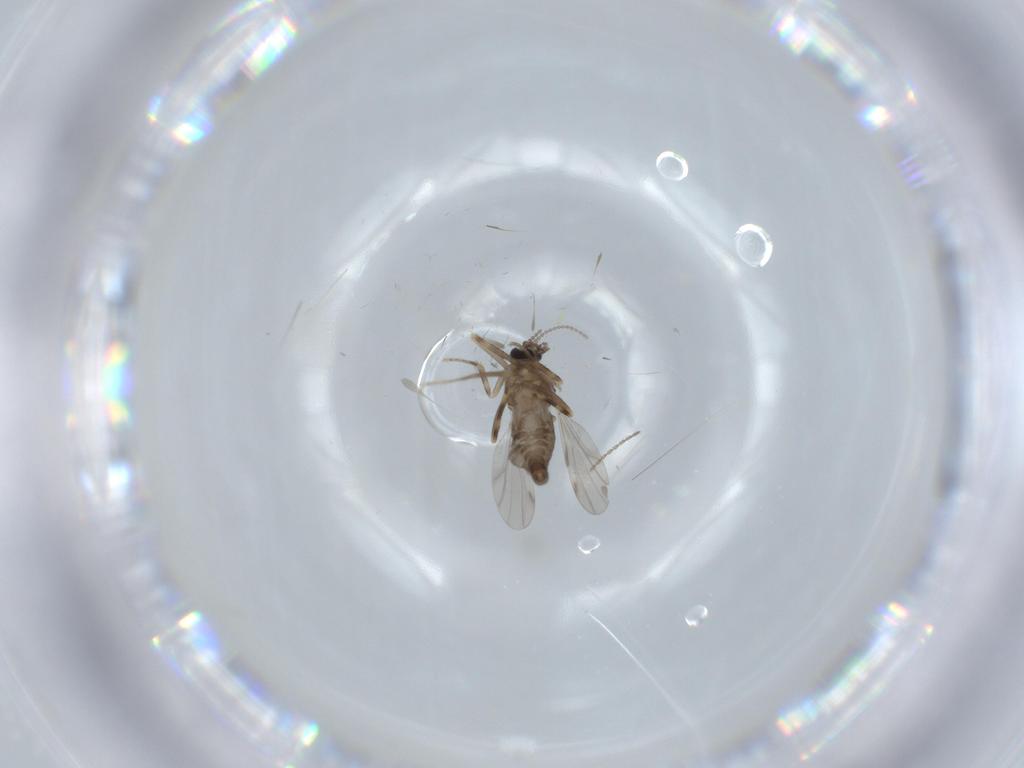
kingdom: Animalia
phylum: Arthropoda
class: Insecta
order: Diptera
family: Ceratopogonidae
